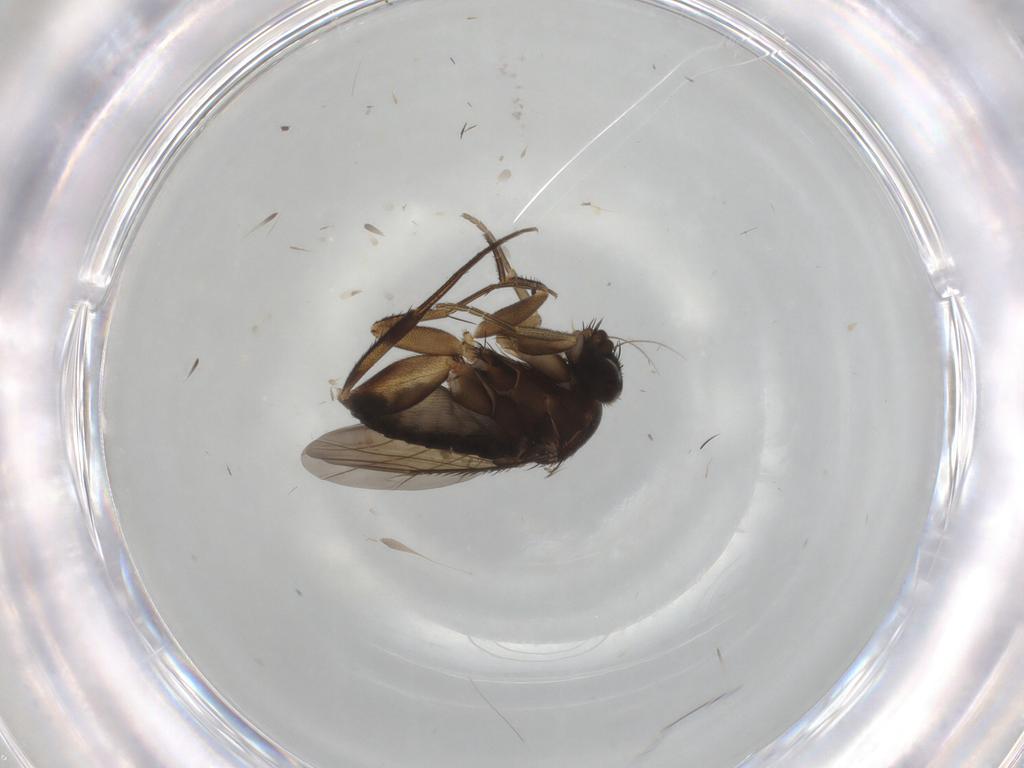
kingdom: Animalia
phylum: Arthropoda
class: Insecta
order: Diptera
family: Phoridae
